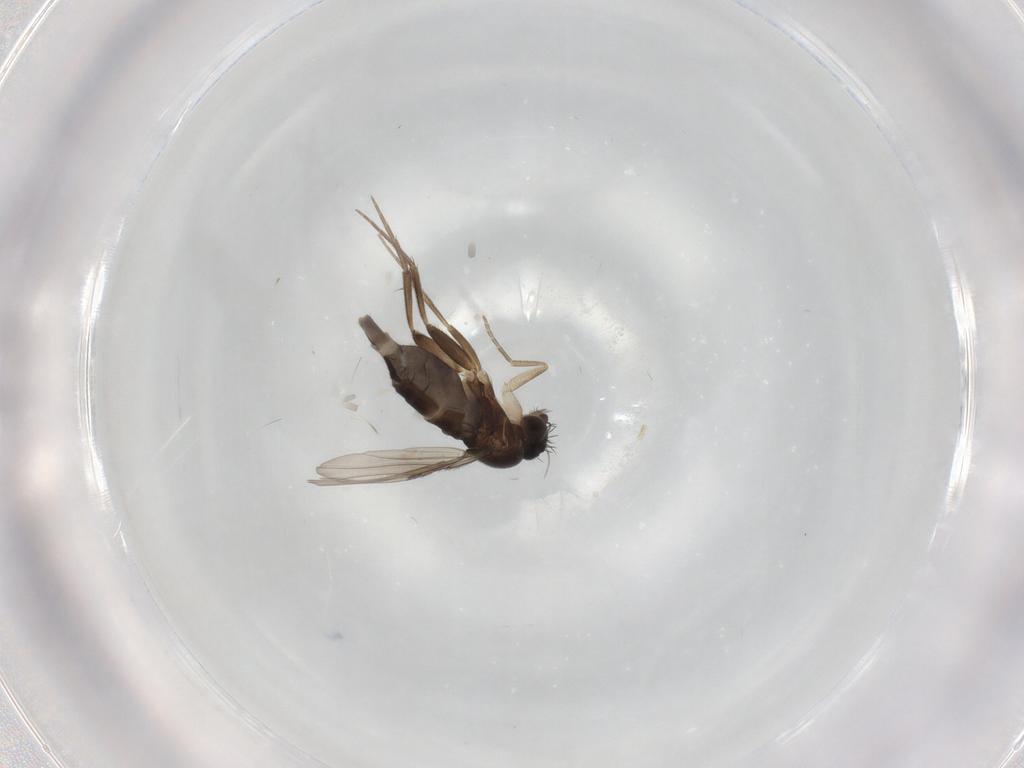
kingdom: Animalia
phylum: Arthropoda
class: Insecta
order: Diptera
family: Phoridae
